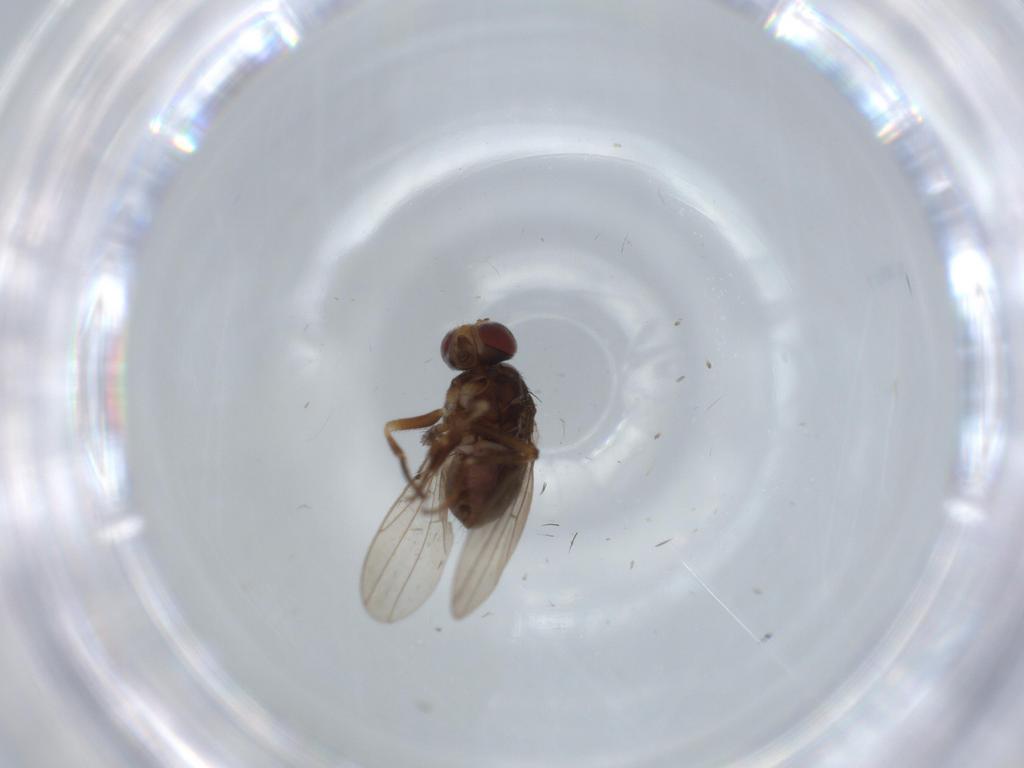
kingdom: Animalia
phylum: Arthropoda
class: Insecta
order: Diptera
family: Ephydridae
